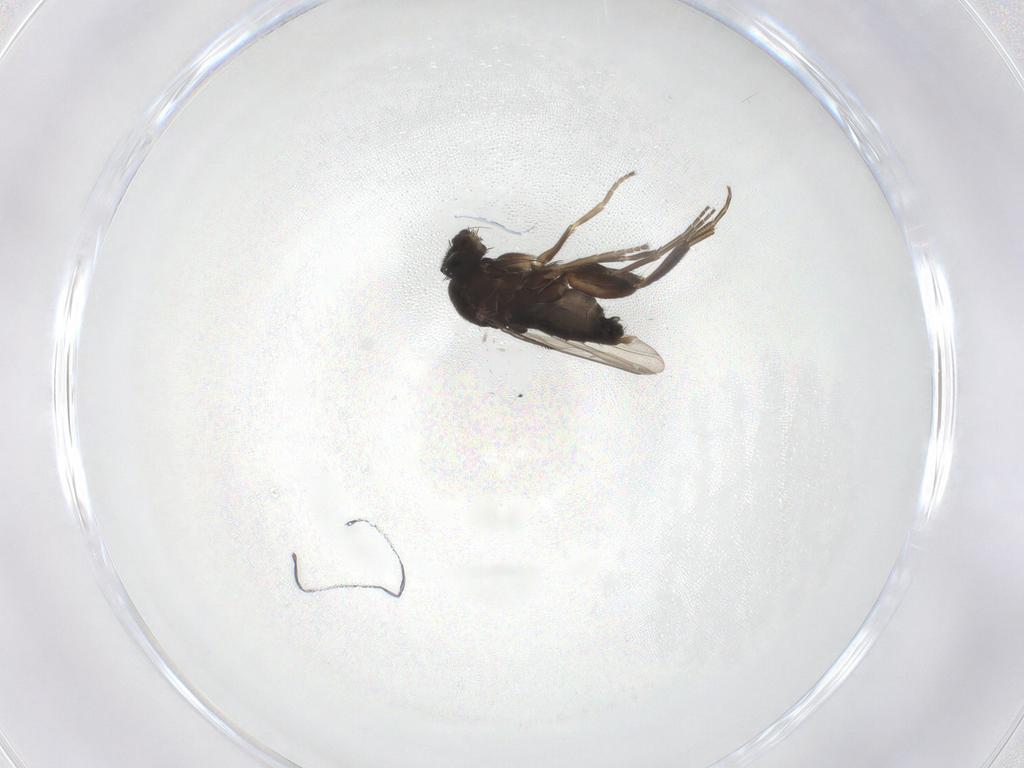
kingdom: Animalia
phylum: Arthropoda
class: Insecta
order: Diptera
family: Phoridae
